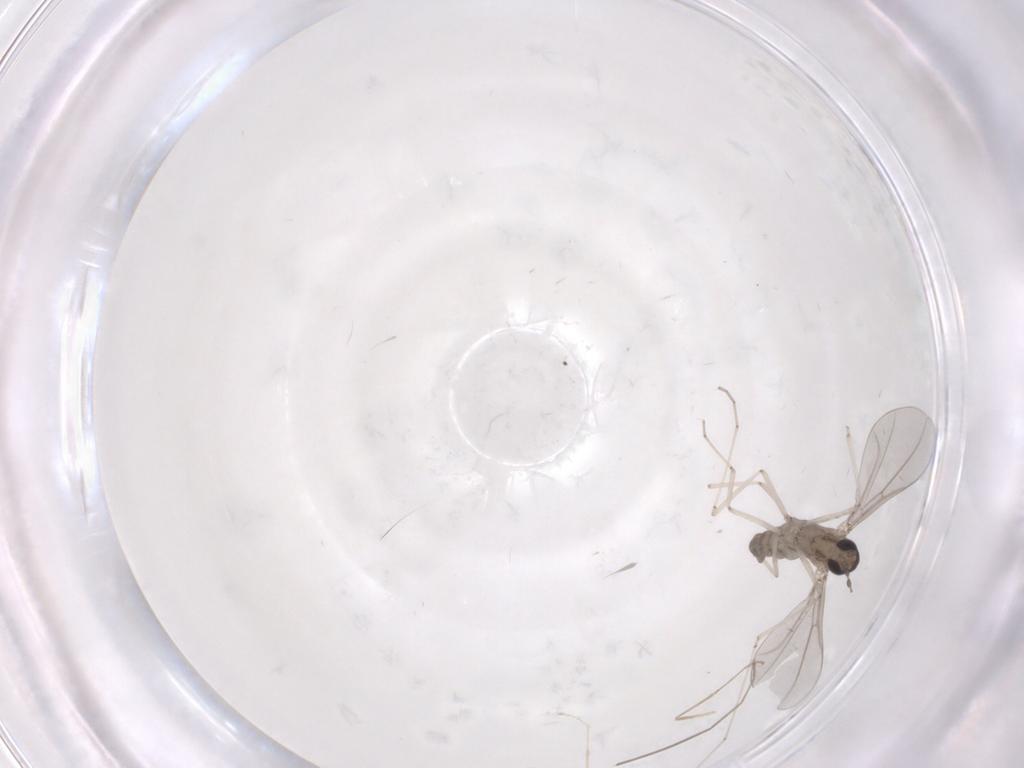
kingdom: Animalia
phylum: Arthropoda
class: Insecta
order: Diptera
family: Cecidomyiidae
